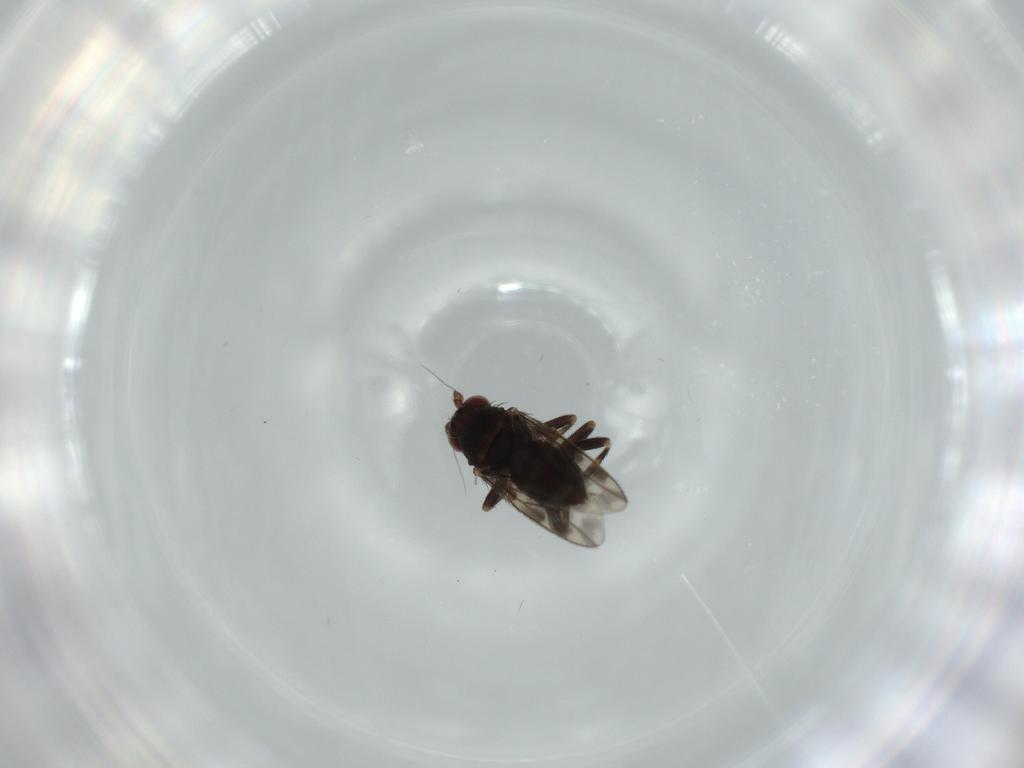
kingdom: Animalia
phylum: Arthropoda
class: Insecta
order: Diptera
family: Sphaeroceridae
